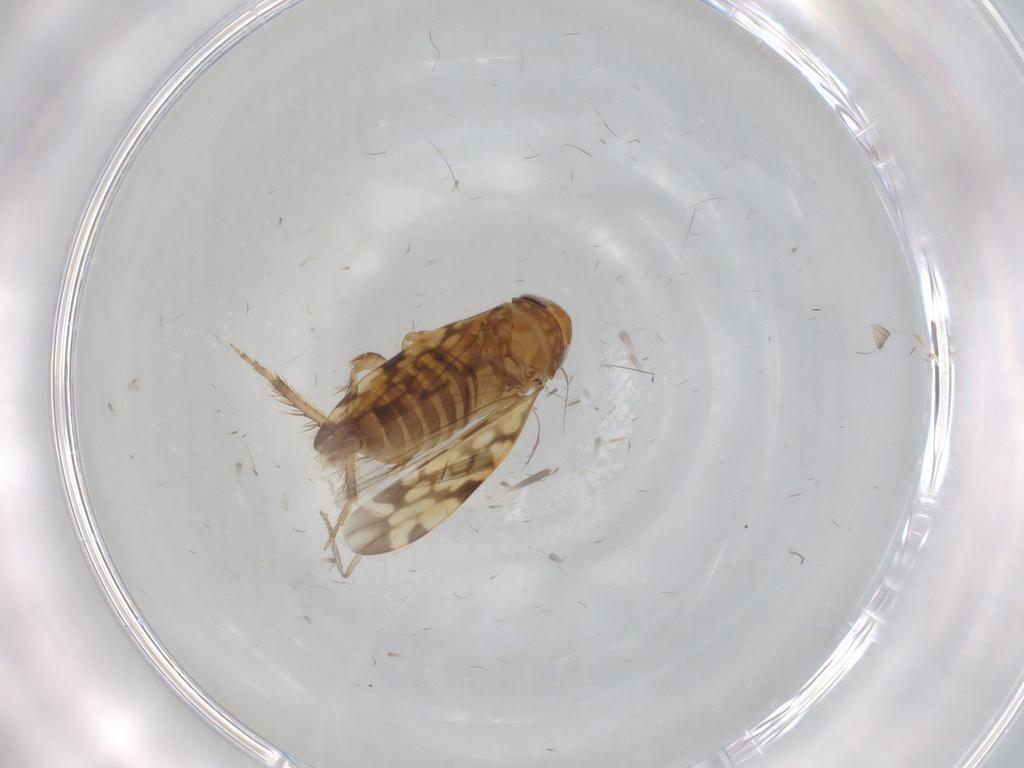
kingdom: Animalia
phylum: Arthropoda
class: Insecta
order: Hemiptera
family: Cicadellidae
